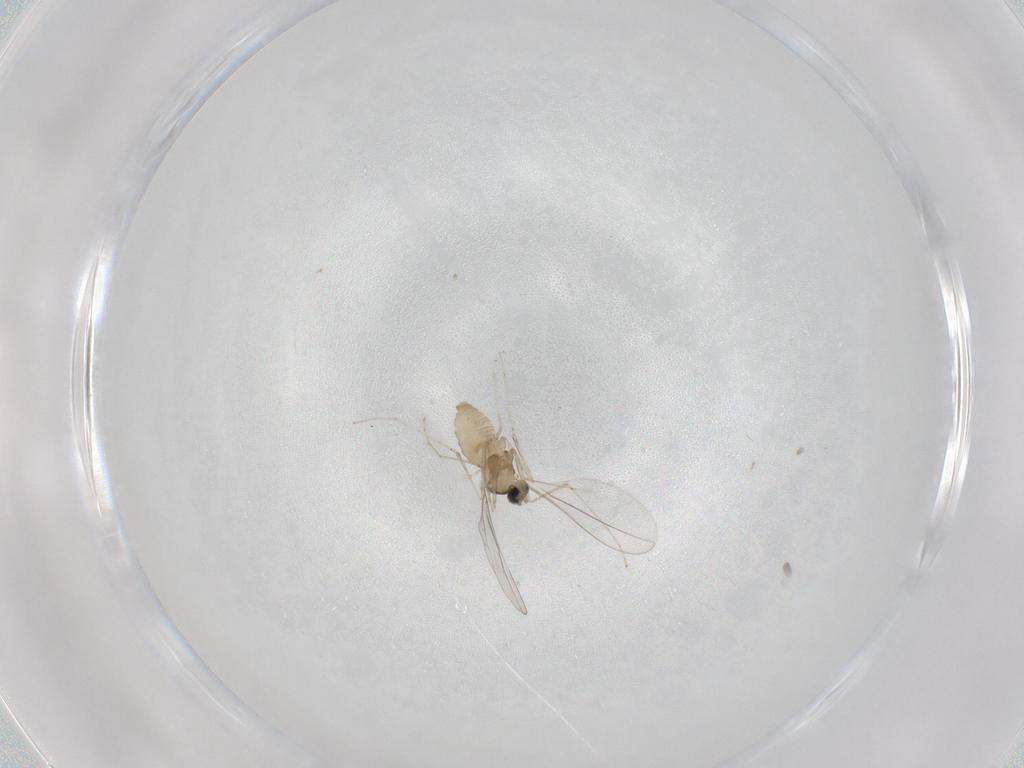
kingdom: Animalia
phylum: Arthropoda
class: Insecta
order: Diptera
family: Cecidomyiidae
